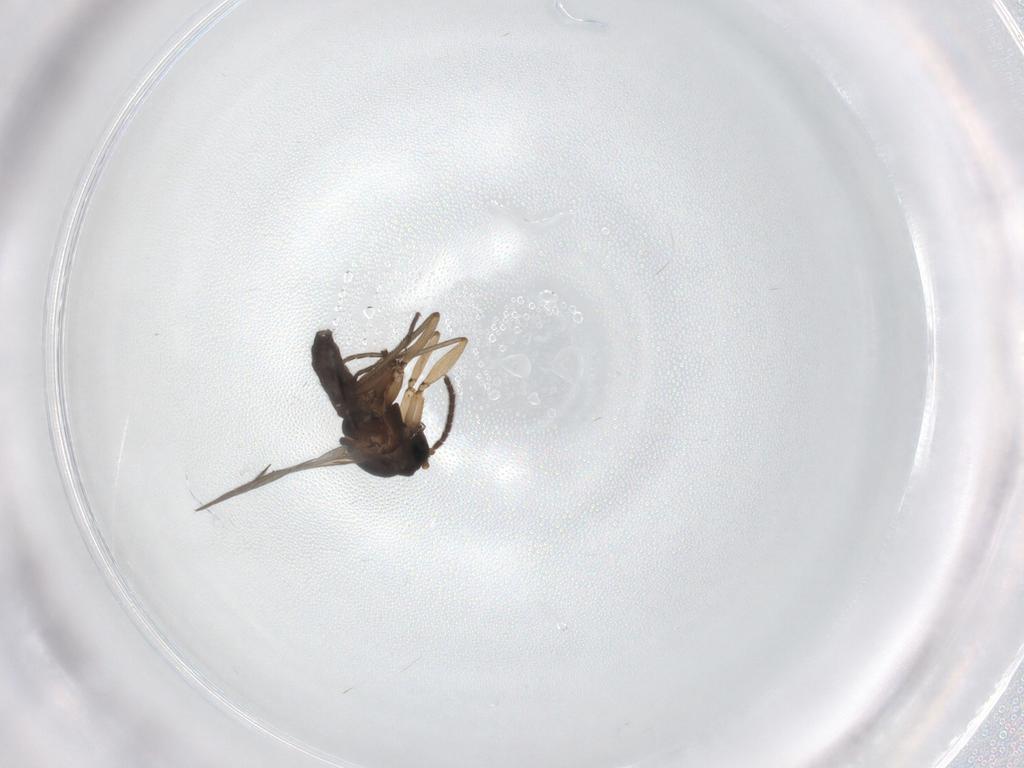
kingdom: Animalia
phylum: Arthropoda
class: Insecta
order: Diptera
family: Sciaridae
